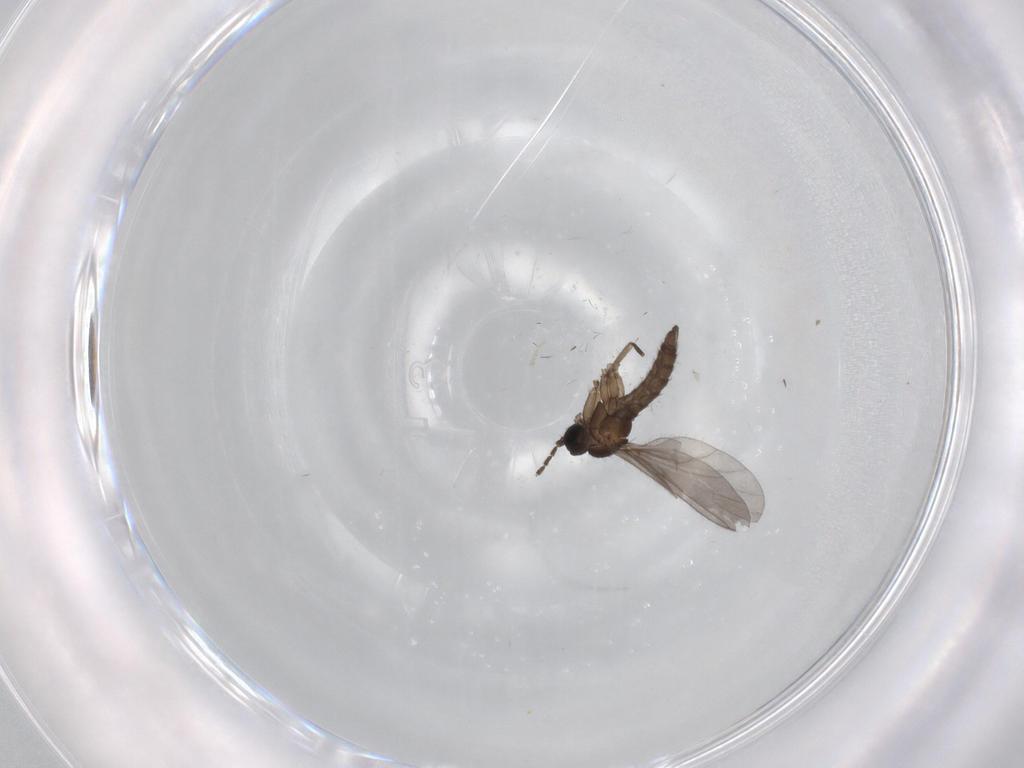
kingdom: Animalia
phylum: Arthropoda
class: Insecta
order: Diptera
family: Sciaridae
